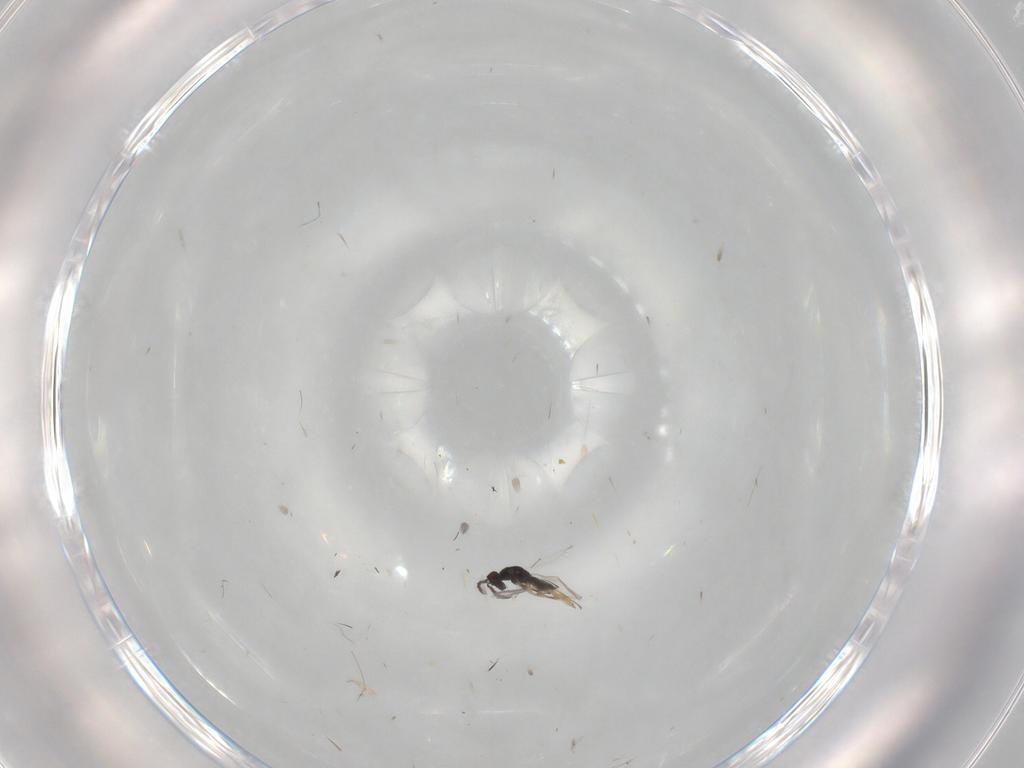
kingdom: Animalia
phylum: Arthropoda
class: Insecta
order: Hymenoptera
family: Eulophidae
